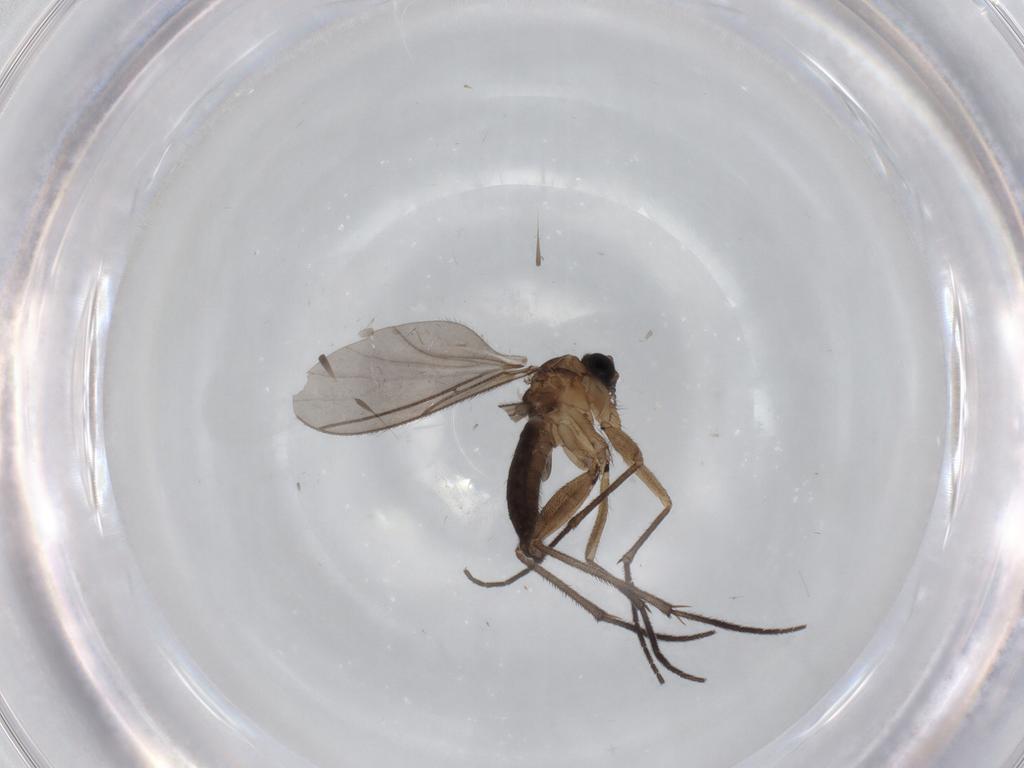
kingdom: Animalia
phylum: Arthropoda
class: Insecta
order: Diptera
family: Sciaridae
